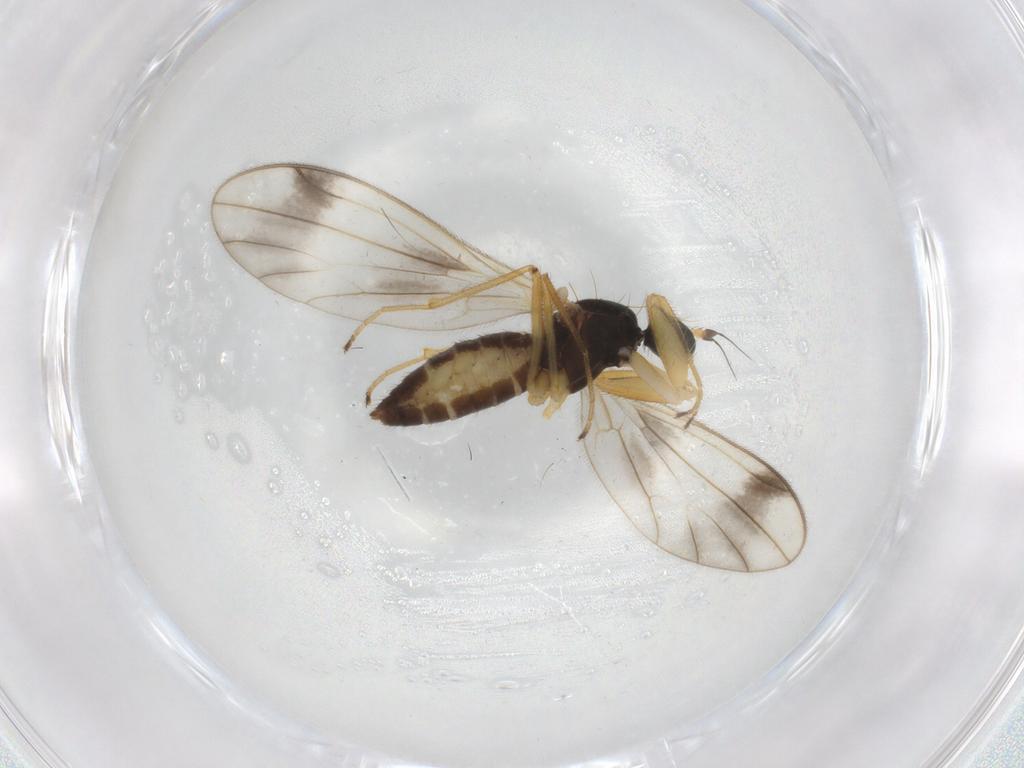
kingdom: Animalia
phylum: Arthropoda
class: Insecta
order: Diptera
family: Empididae
